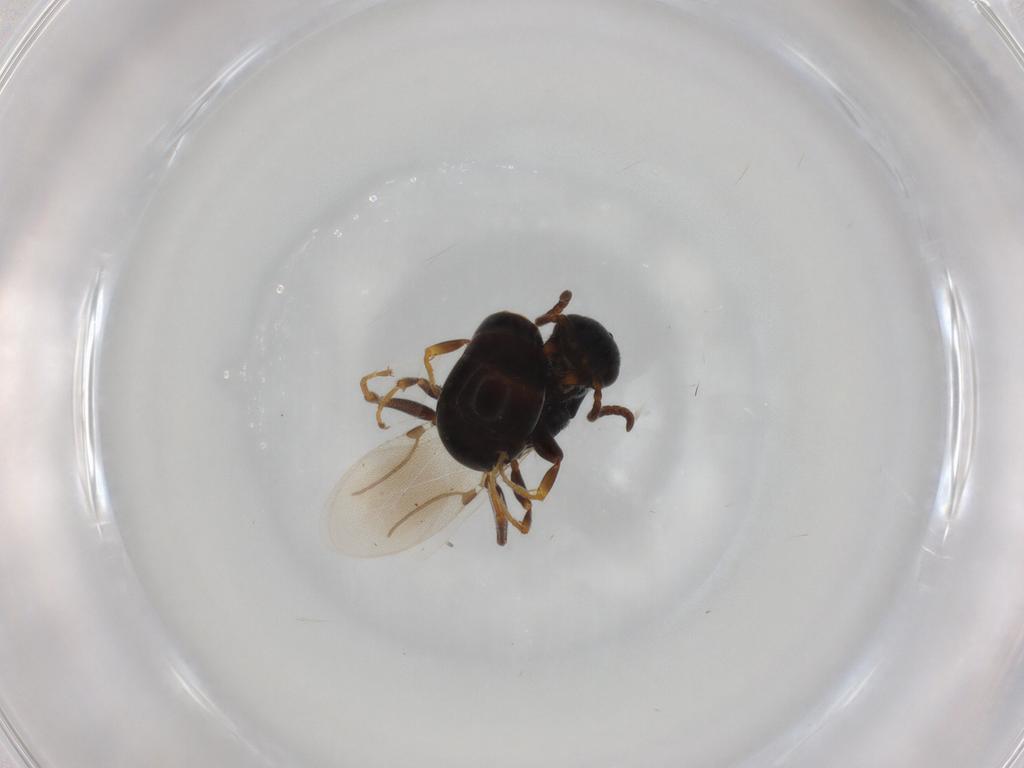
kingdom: Animalia
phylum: Arthropoda
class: Insecta
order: Hymenoptera
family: Bethylidae
